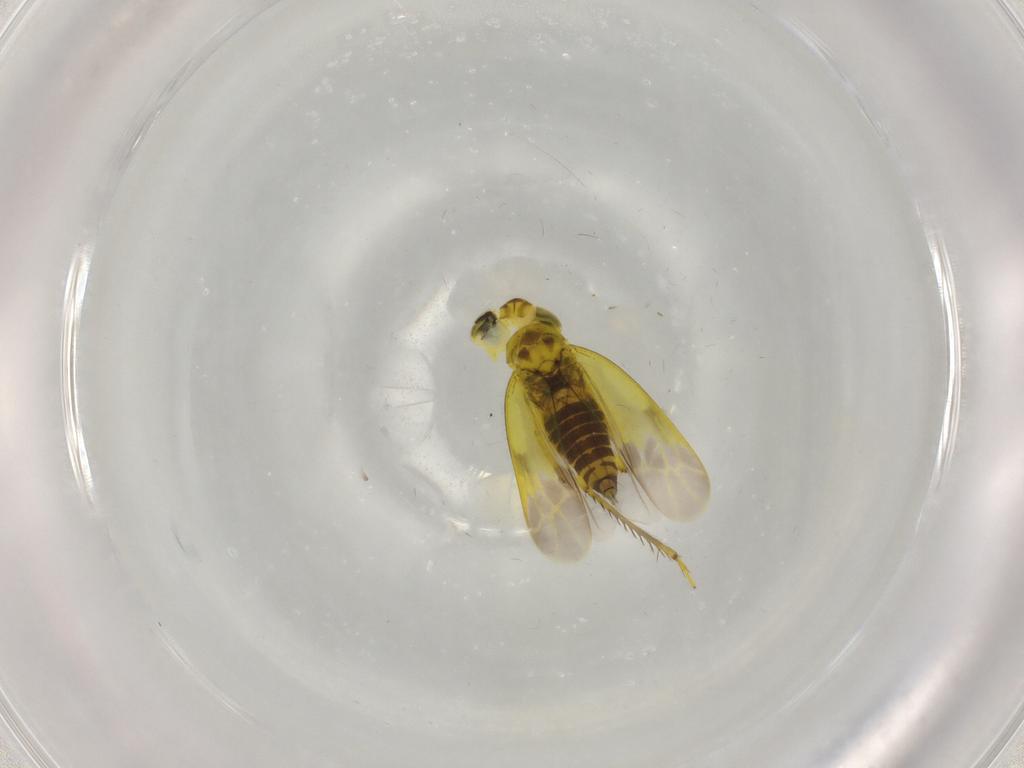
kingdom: Animalia
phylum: Arthropoda
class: Insecta
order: Hemiptera
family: Cicadellidae
